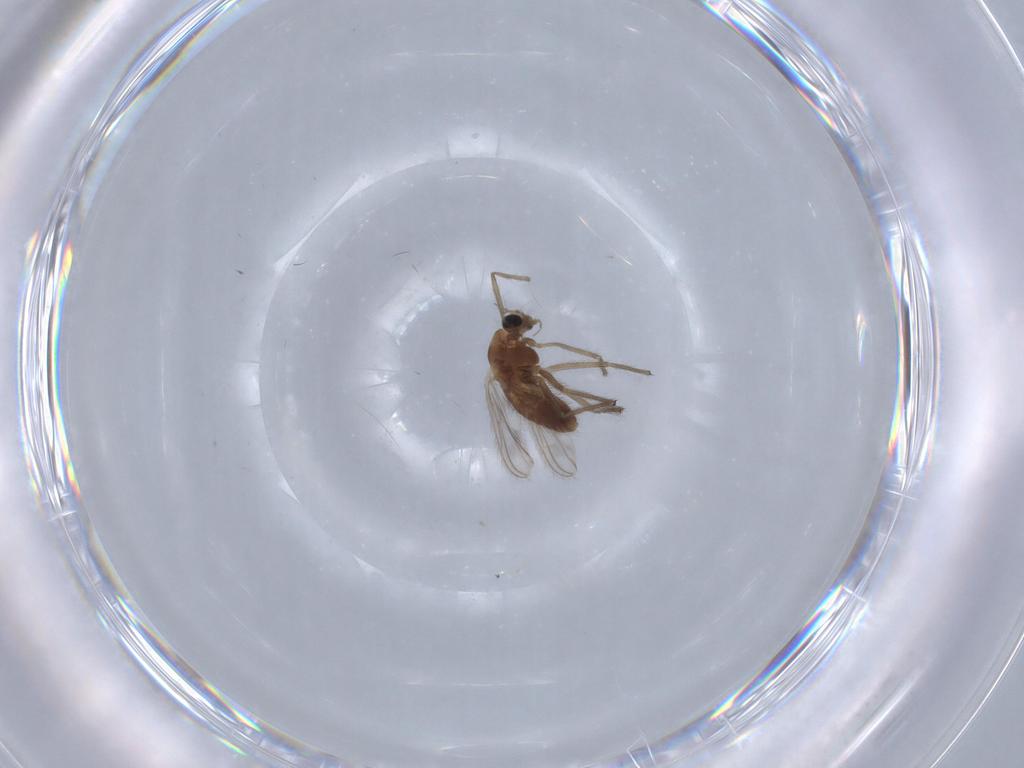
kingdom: Animalia
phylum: Arthropoda
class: Insecta
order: Diptera
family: Chironomidae
